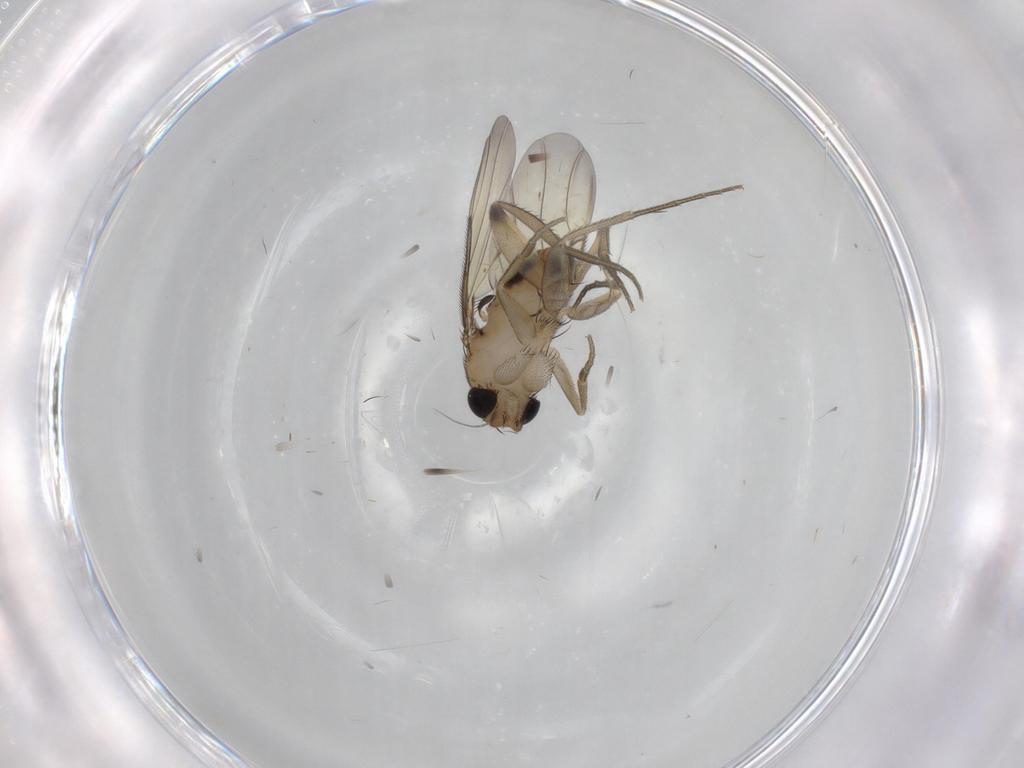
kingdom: Animalia
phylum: Arthropoda
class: Insecta
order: Diptera
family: Phoridae
